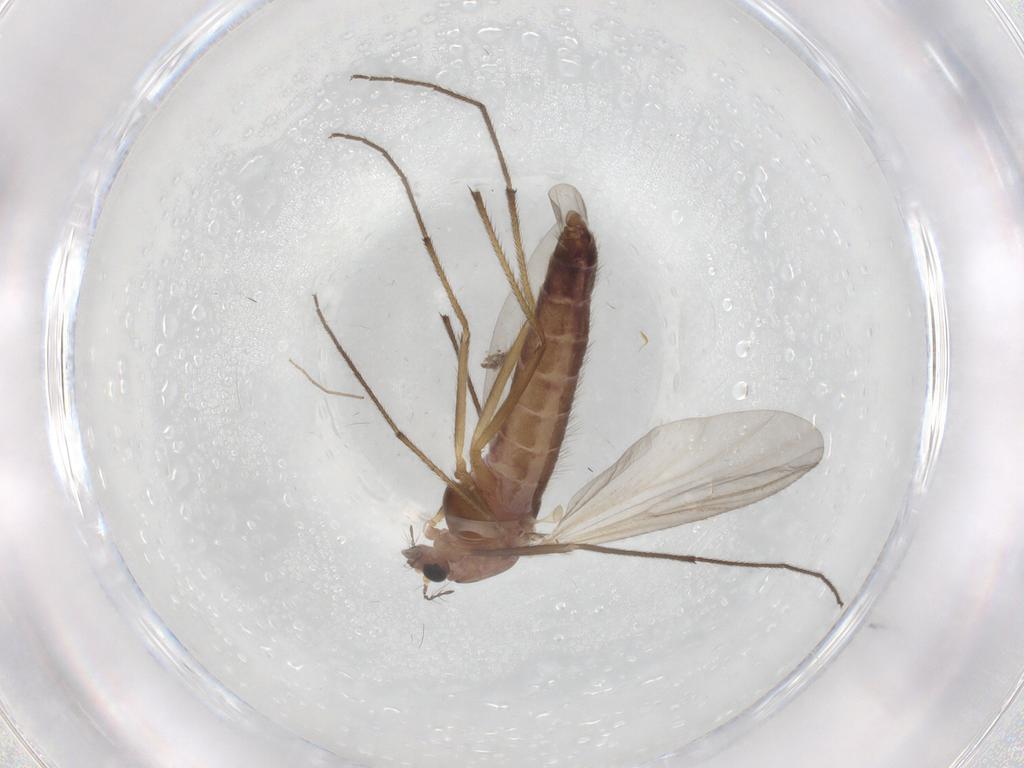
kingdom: Animalia
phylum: Arthropoda
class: Insecta
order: Diptera
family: Chironomidae
